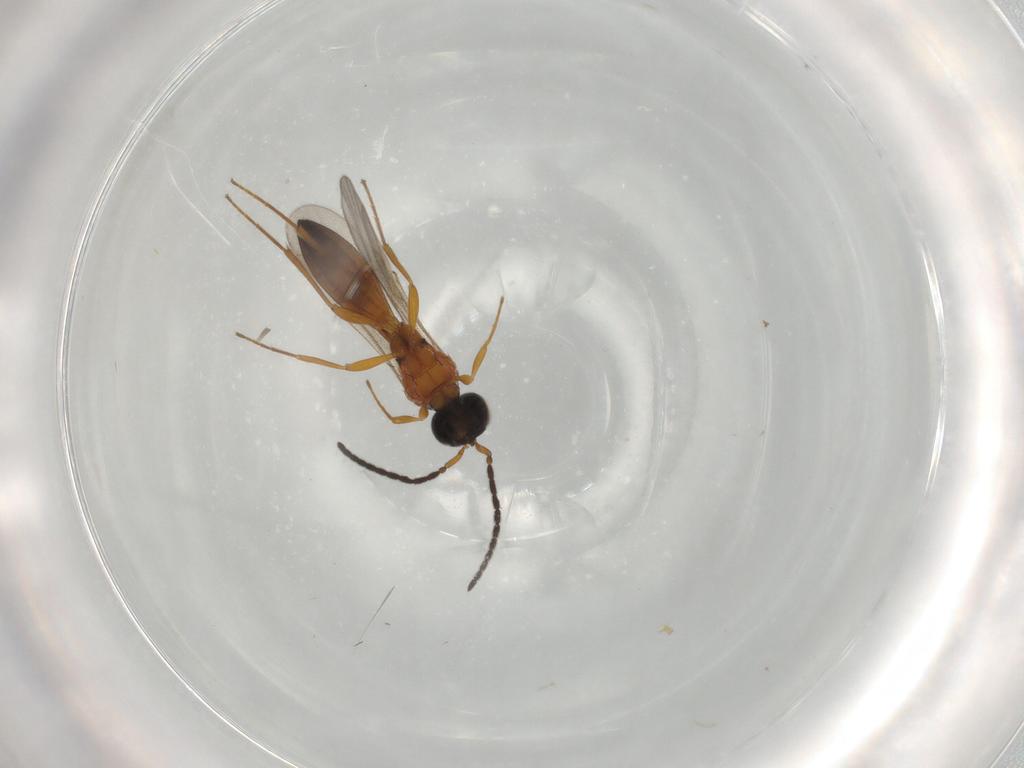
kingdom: Animalia
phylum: Arthropoda
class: Insecta
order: Hymenoptera
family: Scelionidae
